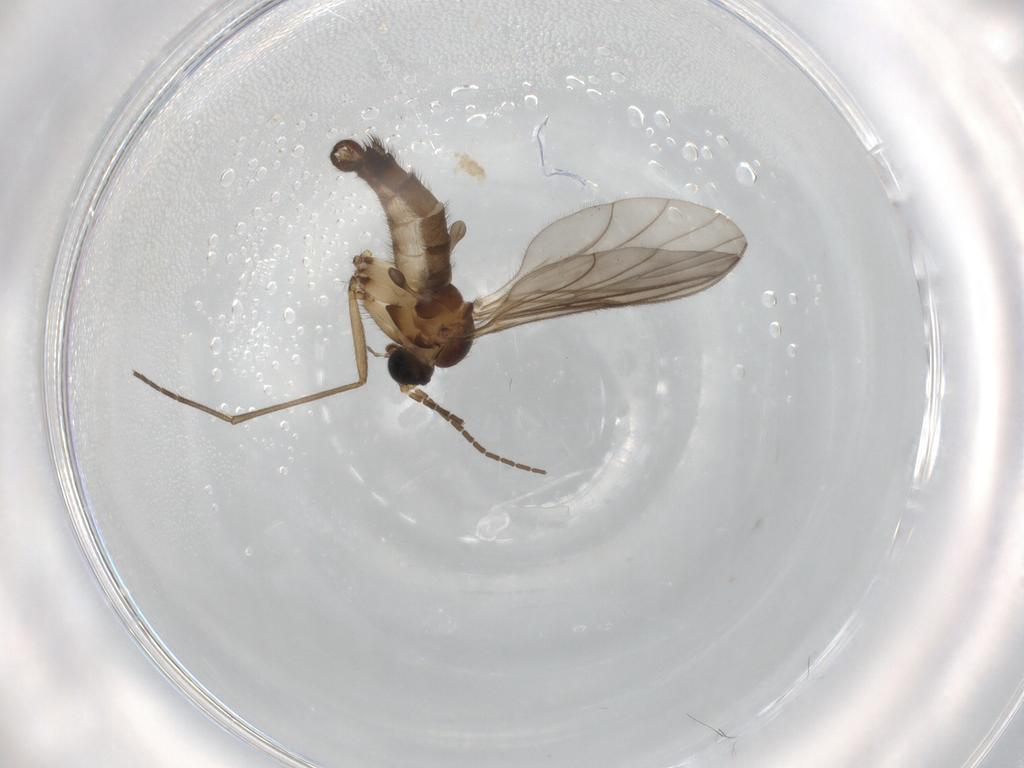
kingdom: Animalia
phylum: Arthropoda
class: Insecta
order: Diptera
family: Sciaridae
